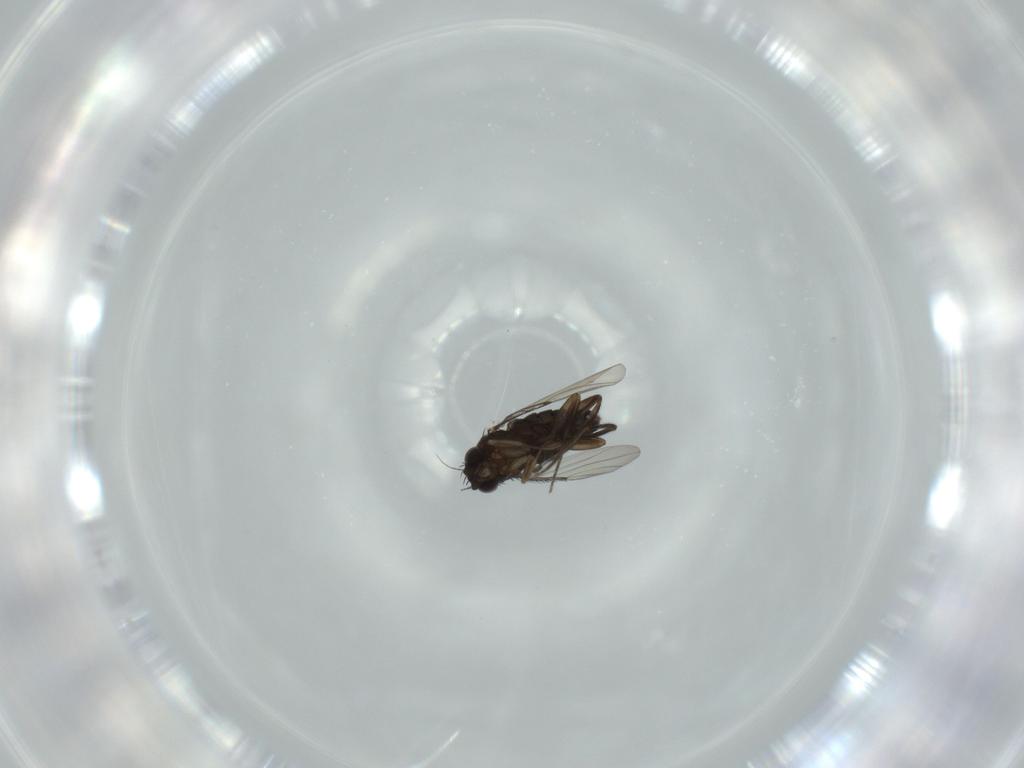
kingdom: Animalia
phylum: Arthropoda
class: Insecta
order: Diptera
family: Phoridae
